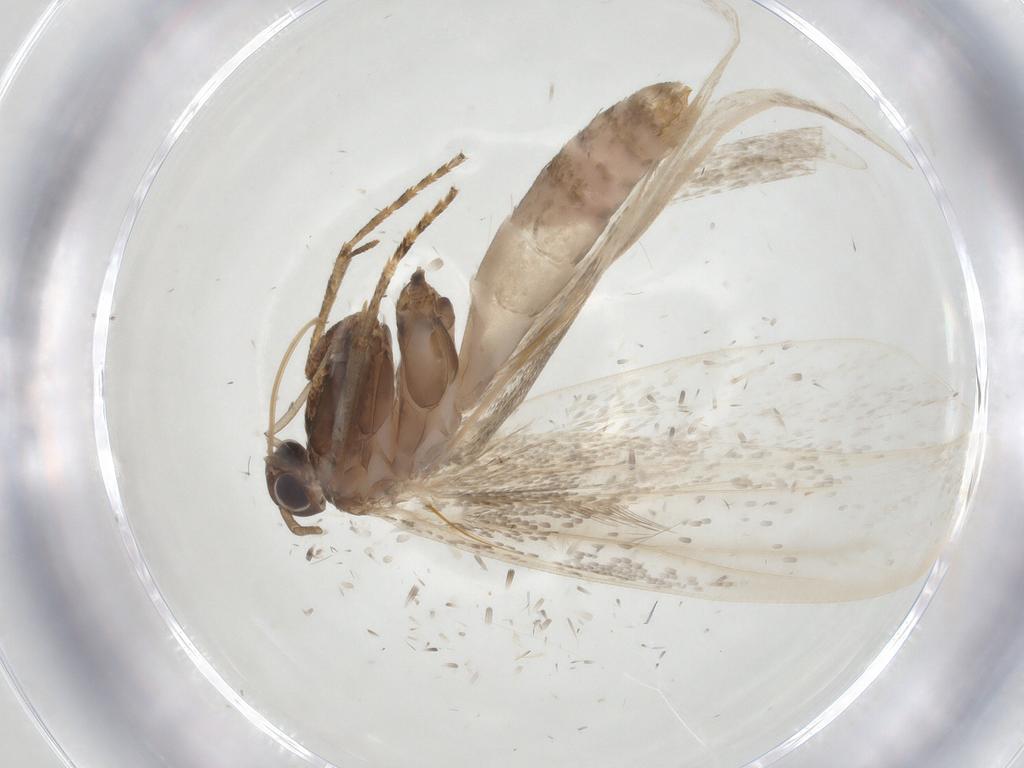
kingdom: Animalia
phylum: Arthropoda
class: Insecta
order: Lepidoptera
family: Gelechiidae
